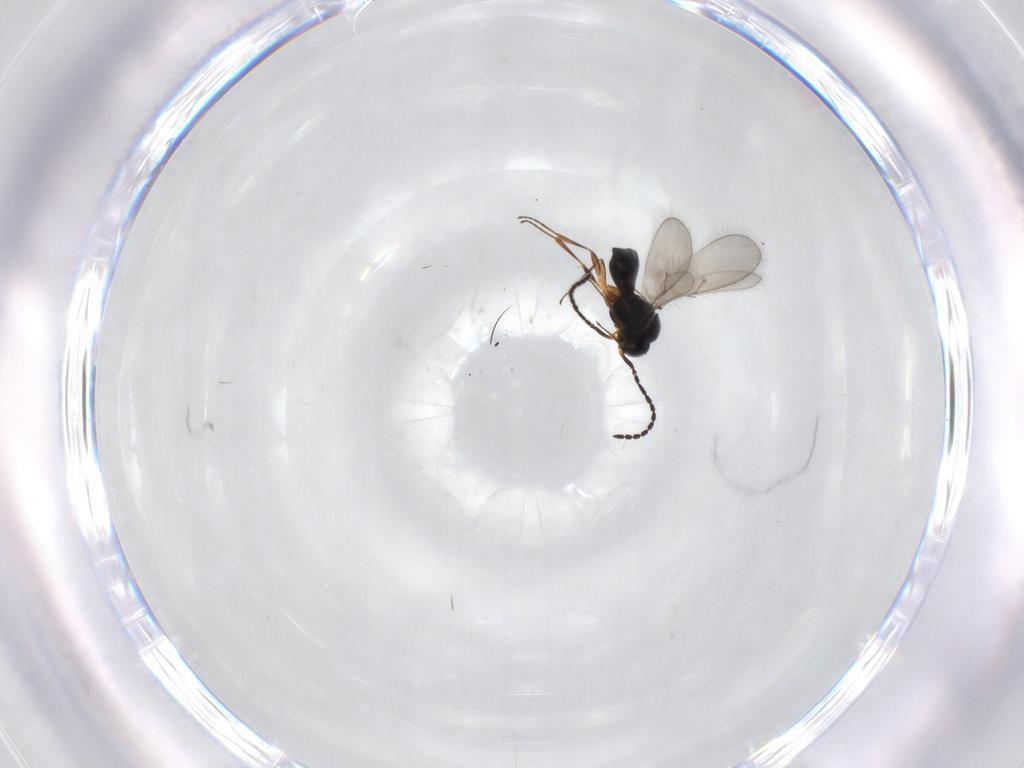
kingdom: Animalia
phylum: Arthropoda
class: Insecta
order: Hymenoptera
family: Scelionidae
